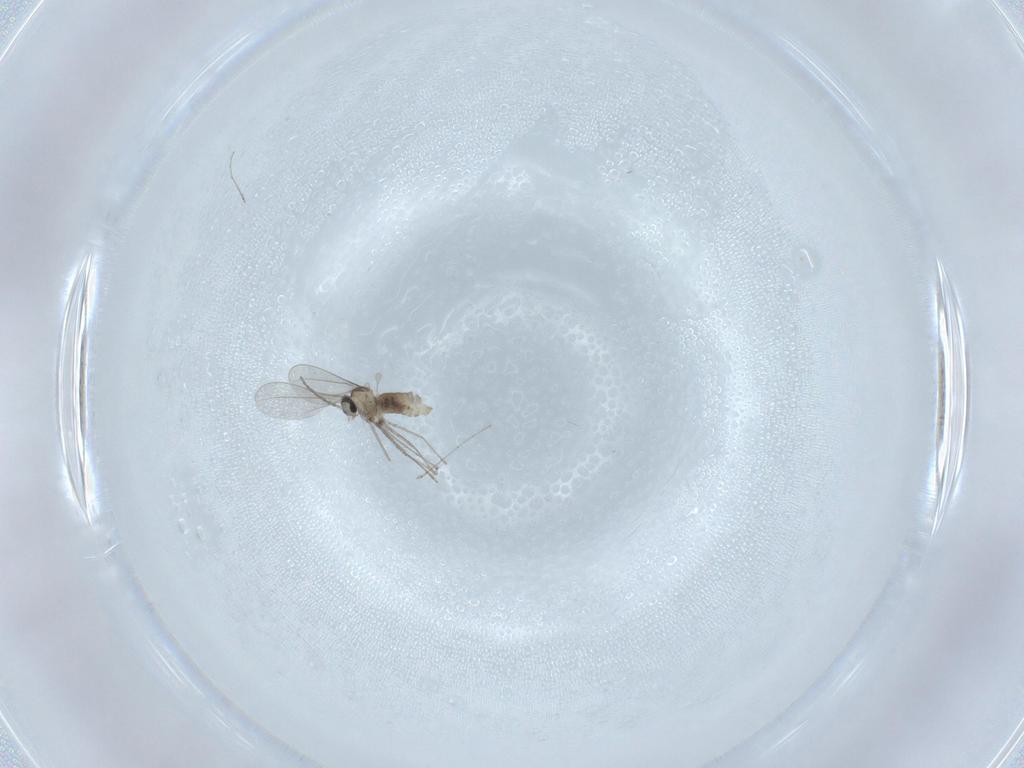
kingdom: Animalia
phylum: Arthropoda
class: Insecta
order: Diptera
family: Cecidomyiidae
